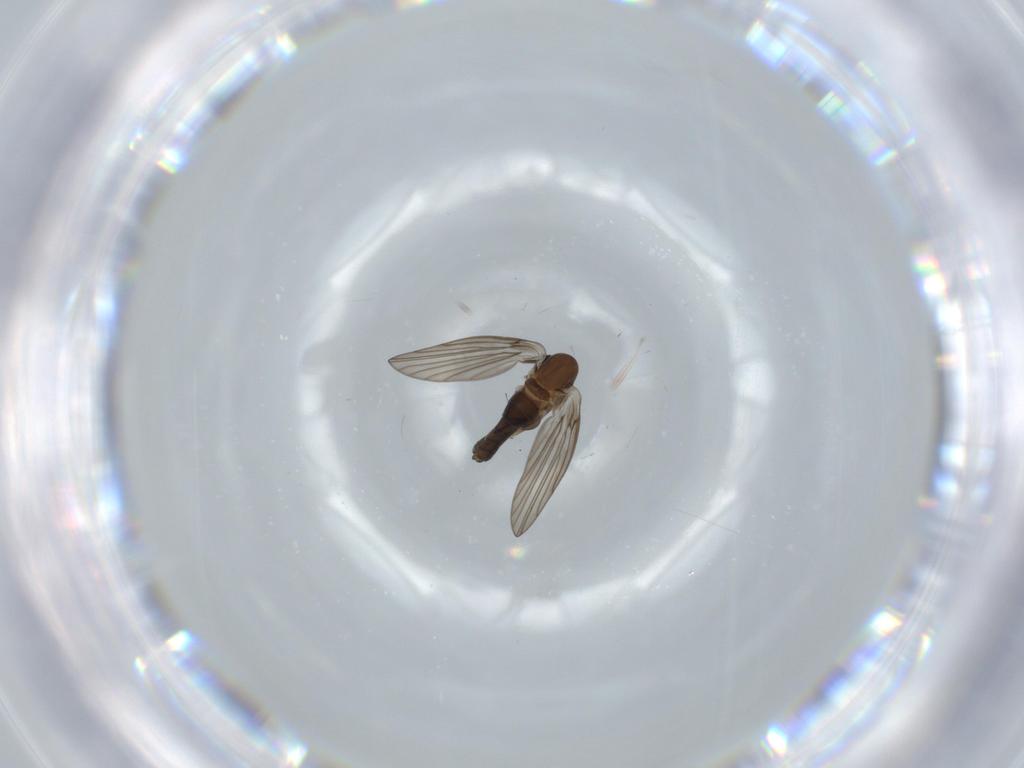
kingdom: Animalia
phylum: Arthropoda
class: Insecta
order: Diptera
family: Psychodidae
